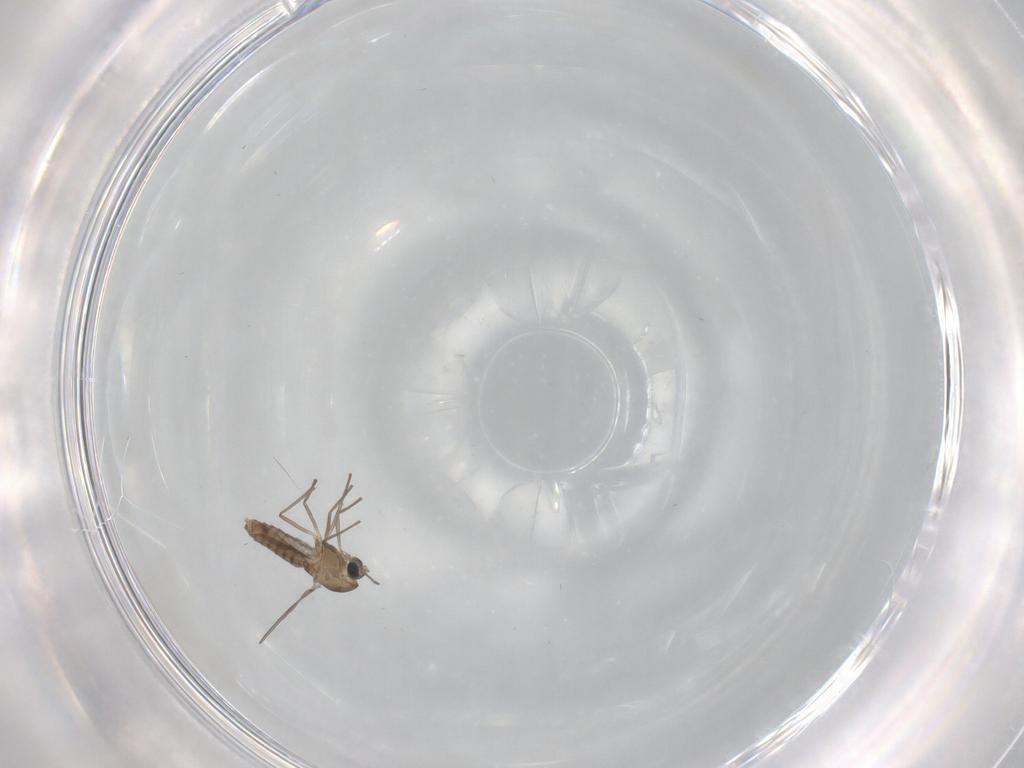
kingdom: Animalia
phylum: Arthropoda
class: Insecta
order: Diptera
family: Chironomidae
